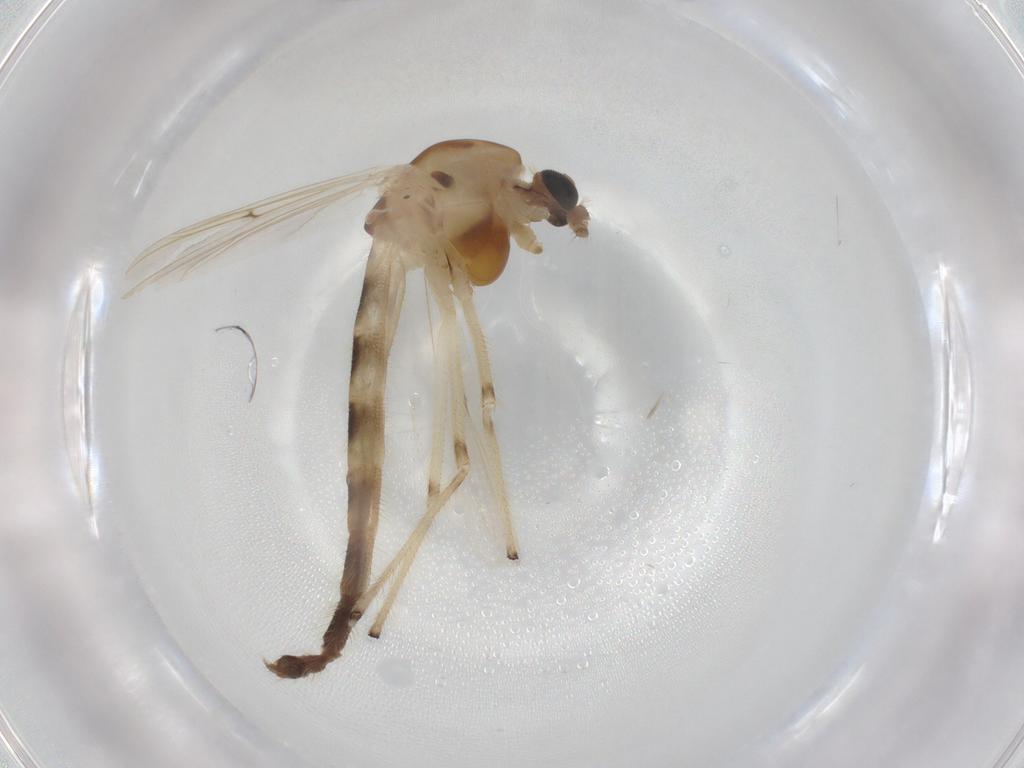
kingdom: Animalia
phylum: Arthropoda
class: Insecta
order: Diptera
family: Chironomidae
